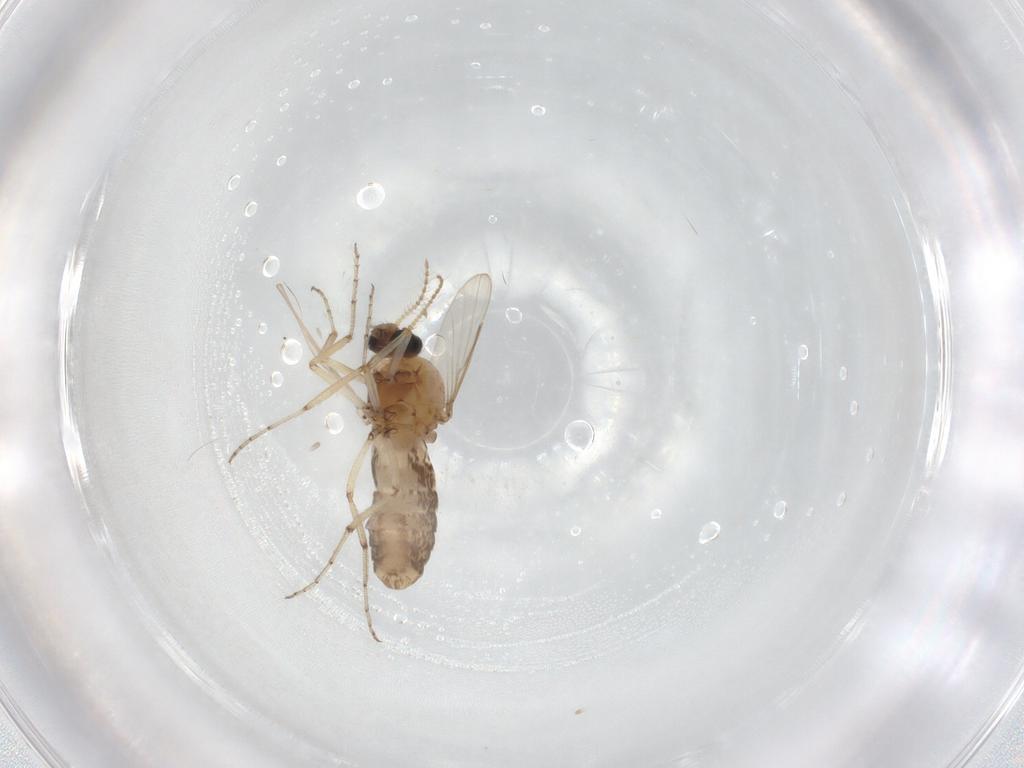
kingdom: Animalia
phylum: Arthropoda
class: Insecta
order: Diptera
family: Ceratopogonidae
